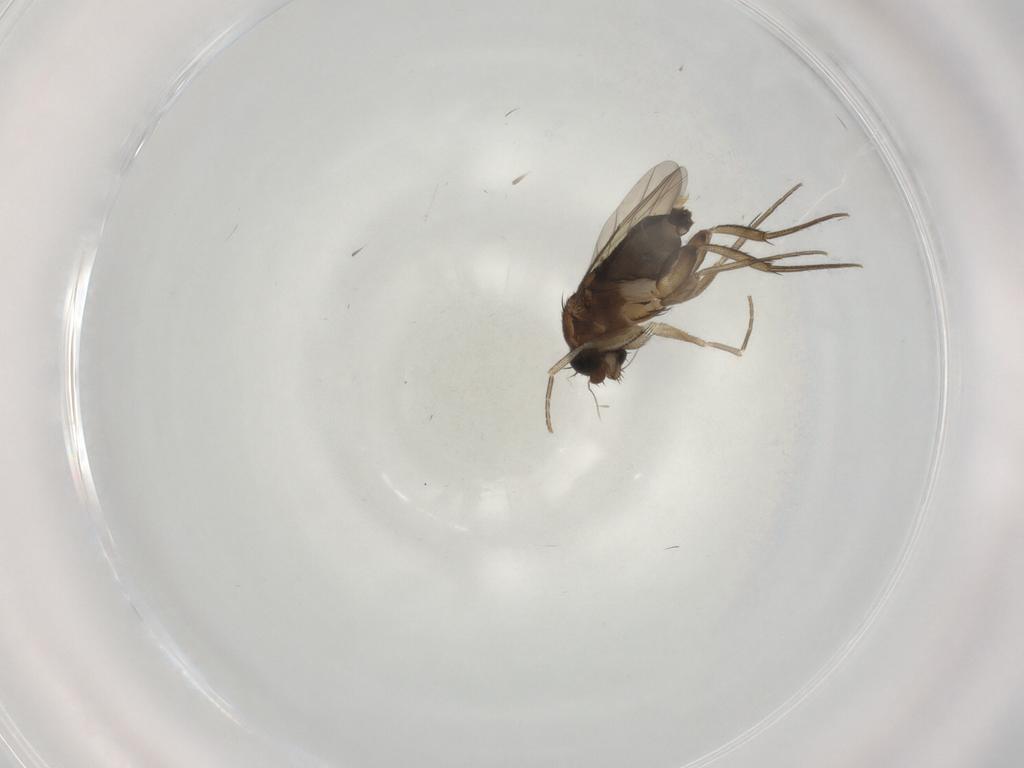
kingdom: Animalia
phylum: Arthropoda
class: Insecta
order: Diptera
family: Phoridae
